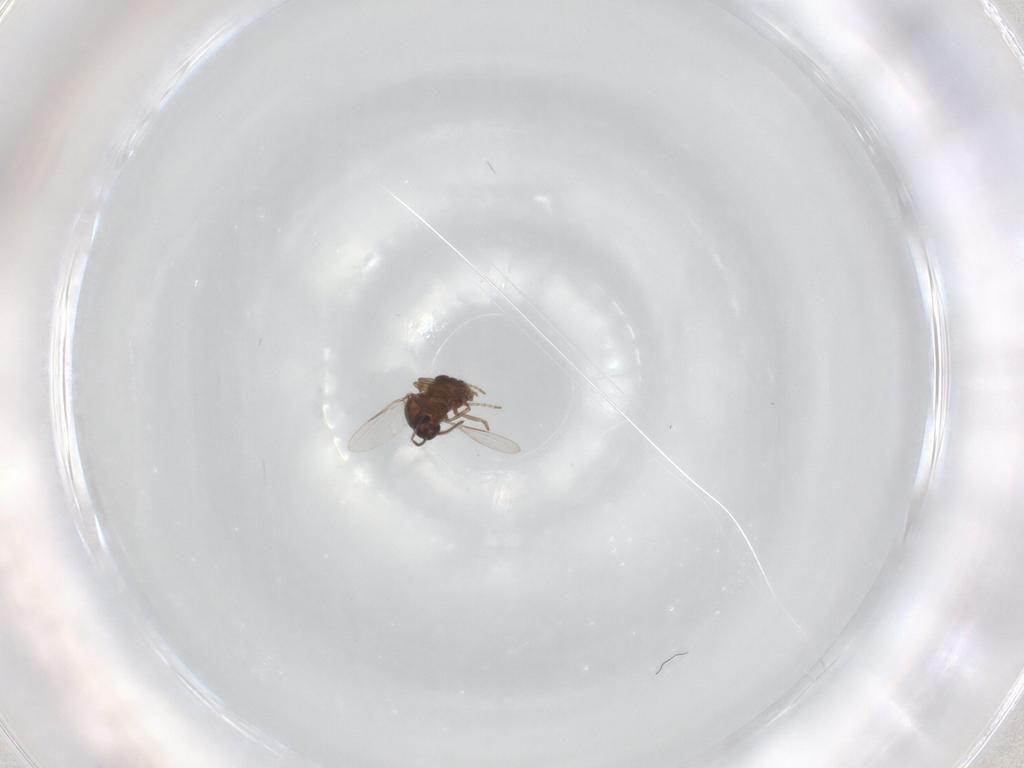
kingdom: Animalia
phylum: Arthropoda
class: Insecta
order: Diptera
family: Ceratopogonidae
